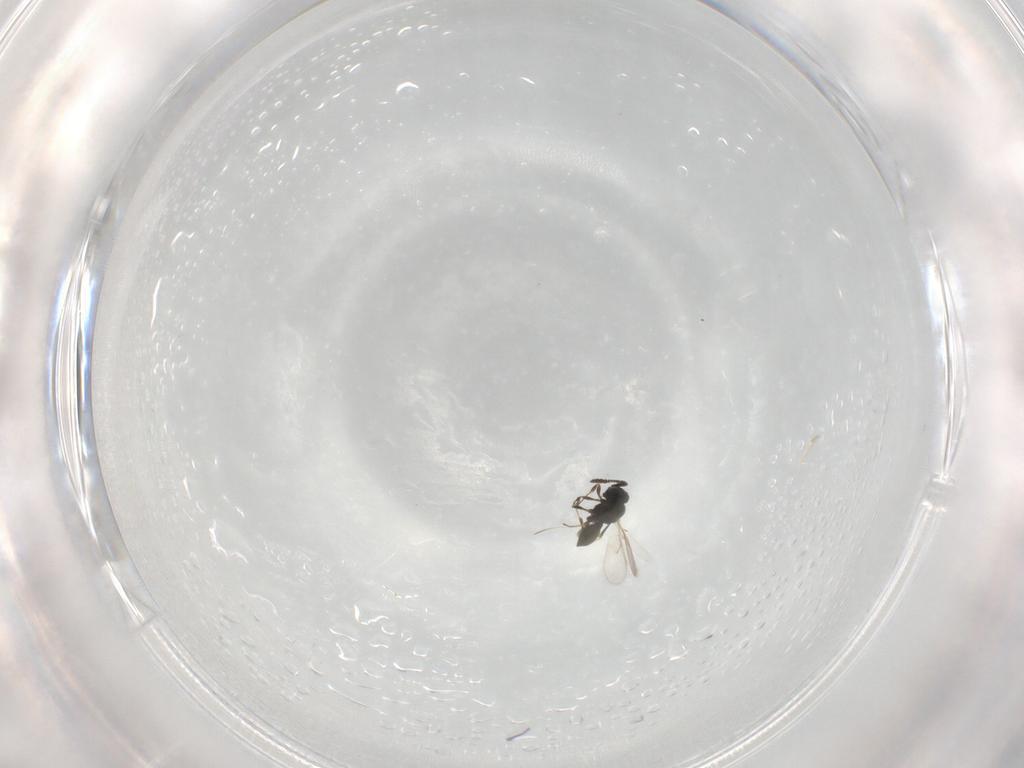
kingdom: Animalia
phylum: Arthropoda
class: Insecta
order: Hymenoptera
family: Scelionidae
